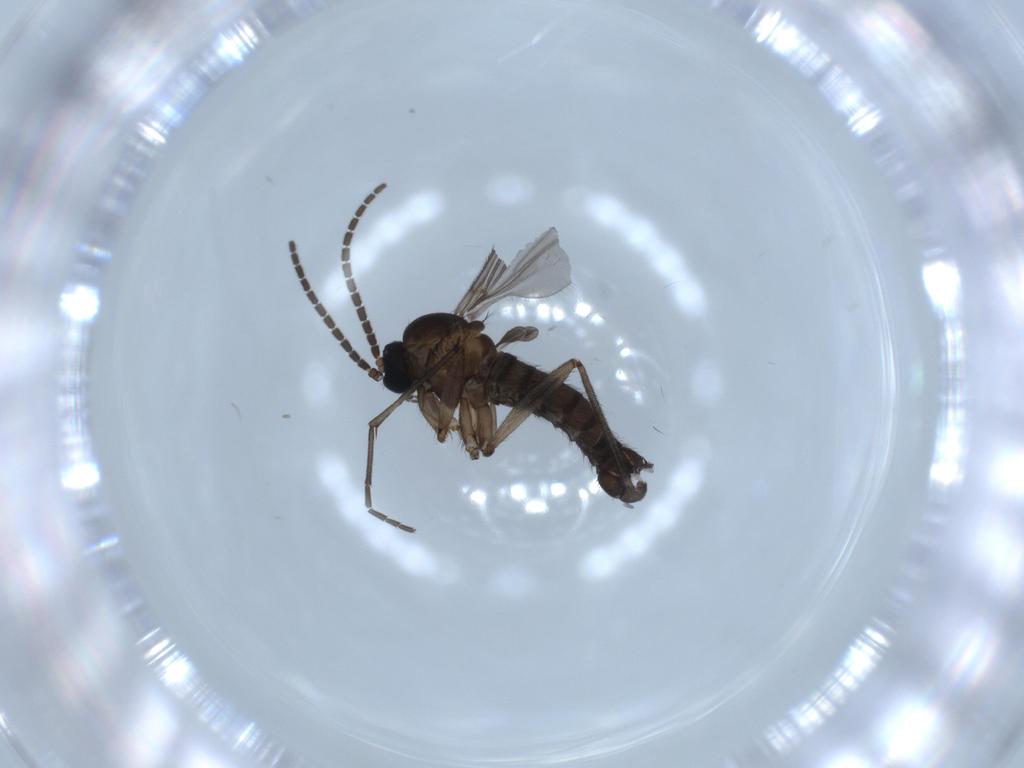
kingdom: Animalia
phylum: Arthropoda
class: Insecta
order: Diptera
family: Sciaridae
